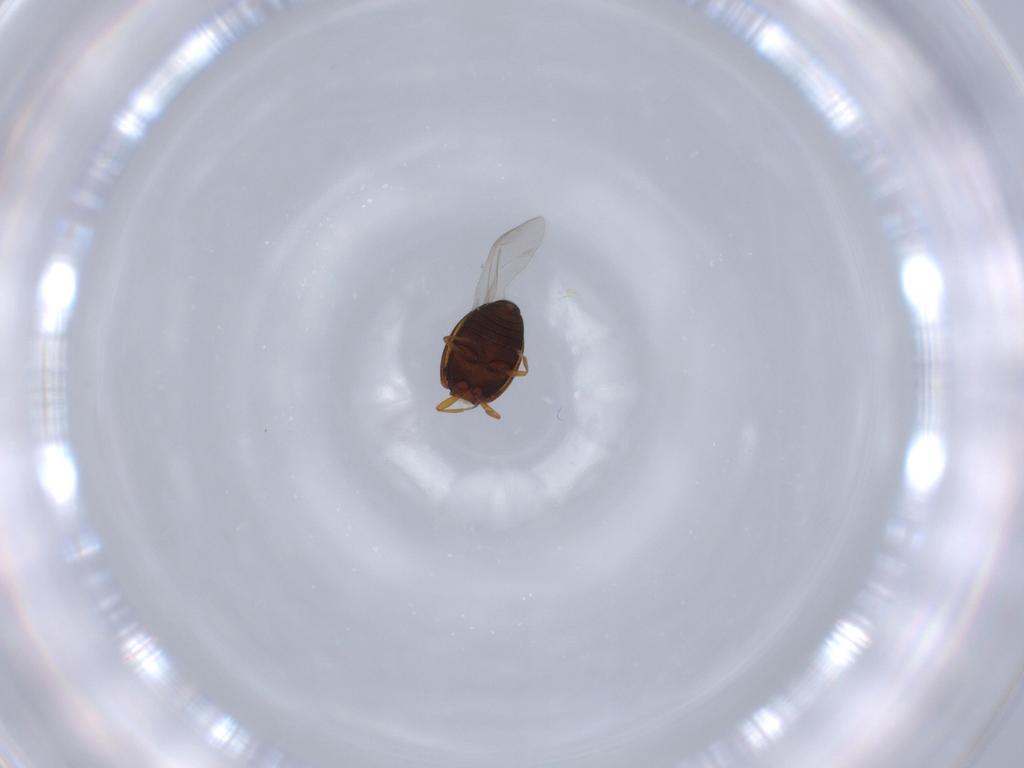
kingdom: Animalia
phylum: Arthropoda
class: Insecta
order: Coleoptera
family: Latridiidae
